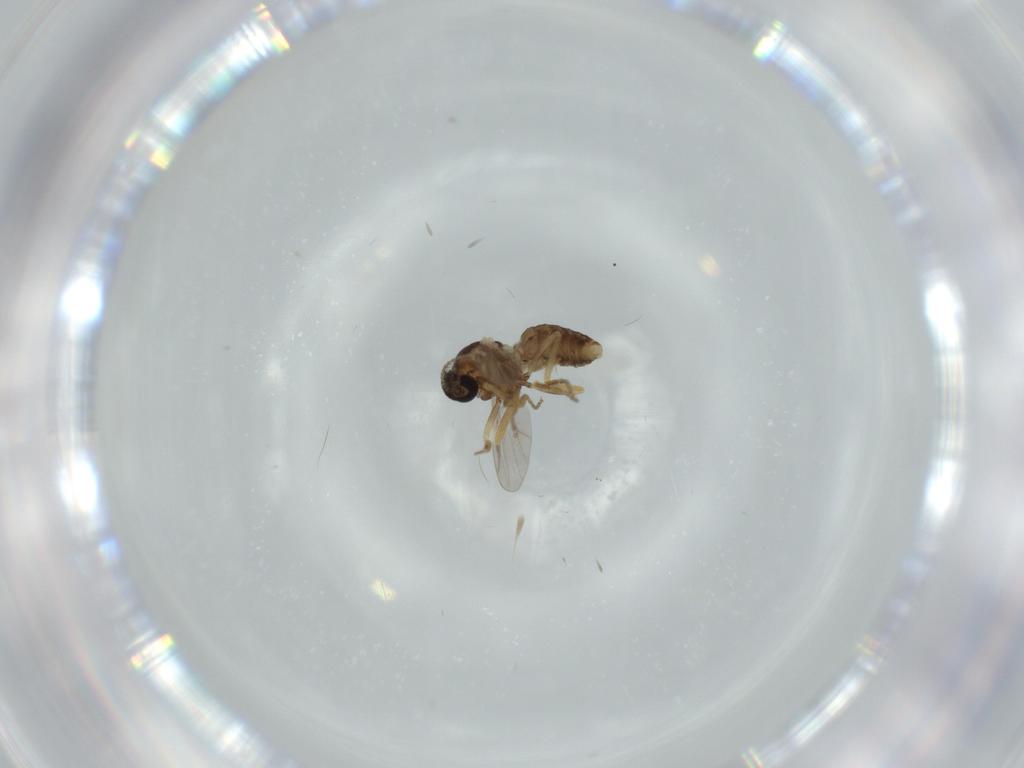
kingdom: Animalia
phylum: Arthropoda
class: Insecta
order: Diptera
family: Ceratopogonidae
